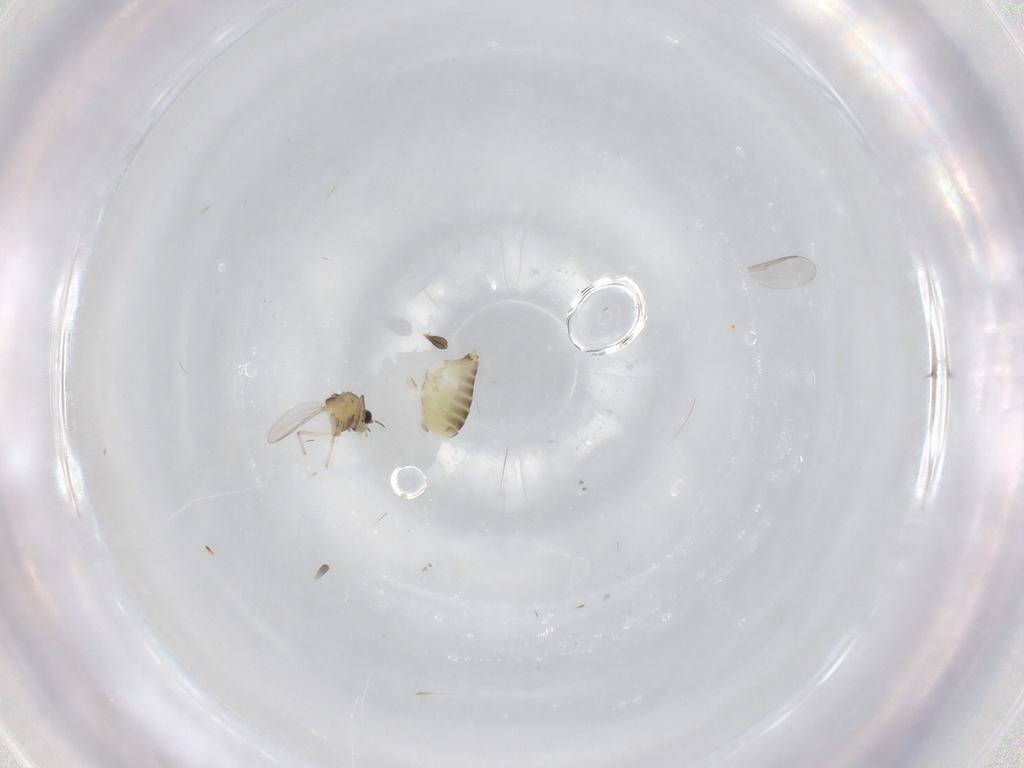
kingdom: Animalia
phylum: Arthropoda
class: Insecta
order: Diptera
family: Chironomidae
